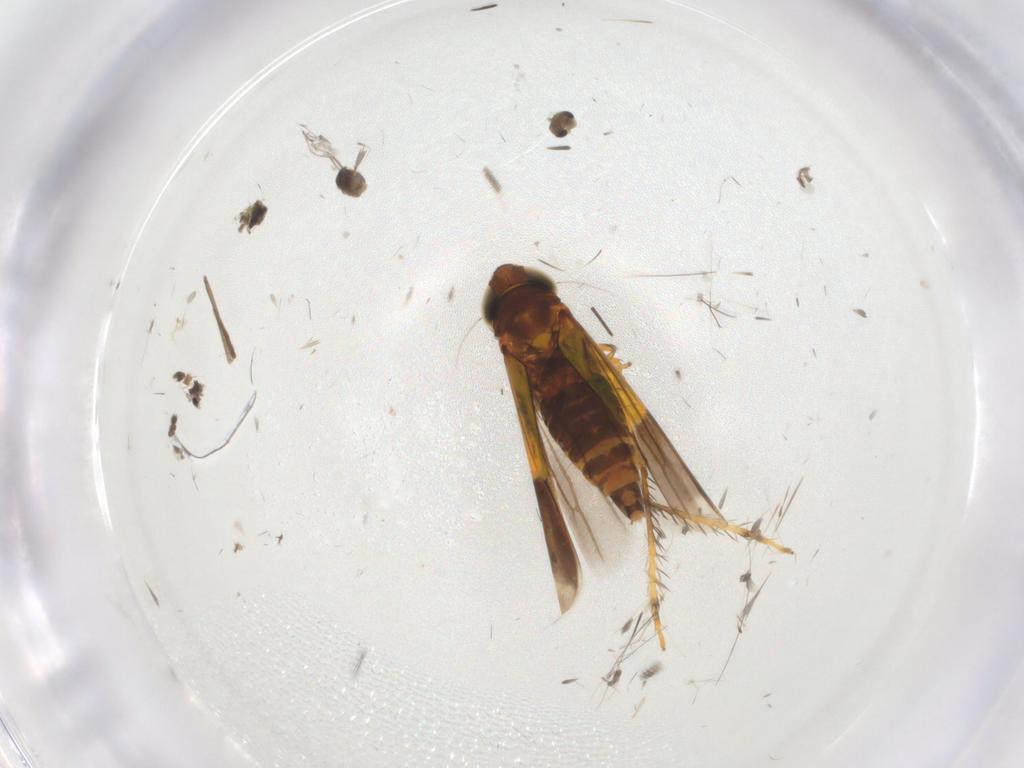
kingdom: Animalia
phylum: Arthropoda
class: Insecta
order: Hemiptera
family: Cicadellidae
